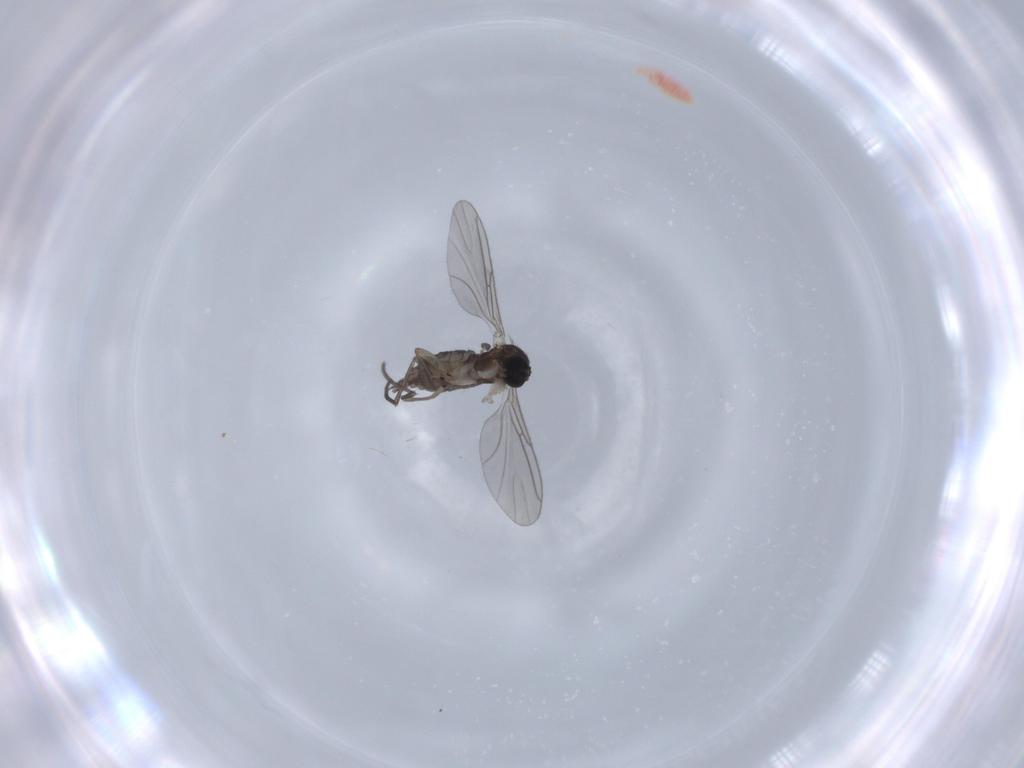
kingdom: Animalia
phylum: Arthropoda
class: Insecta
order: Diptera
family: Sciaridae
